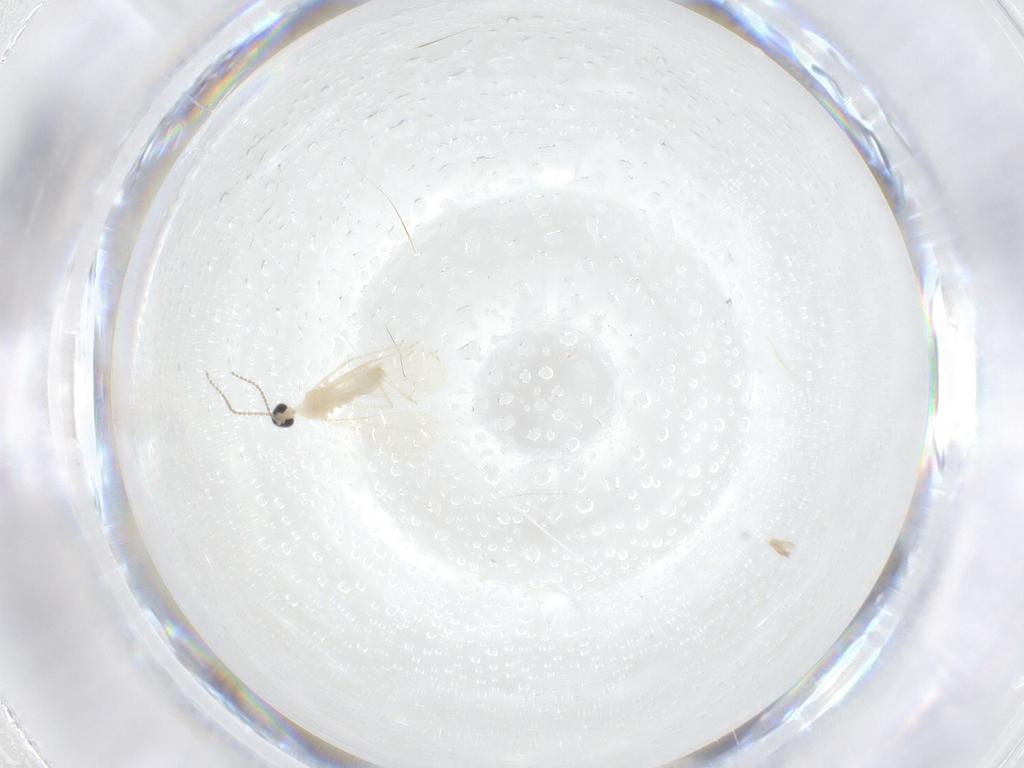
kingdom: Animalia
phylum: Arthropoda
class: Insecta
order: Diptera
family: Cecidomyiidae
